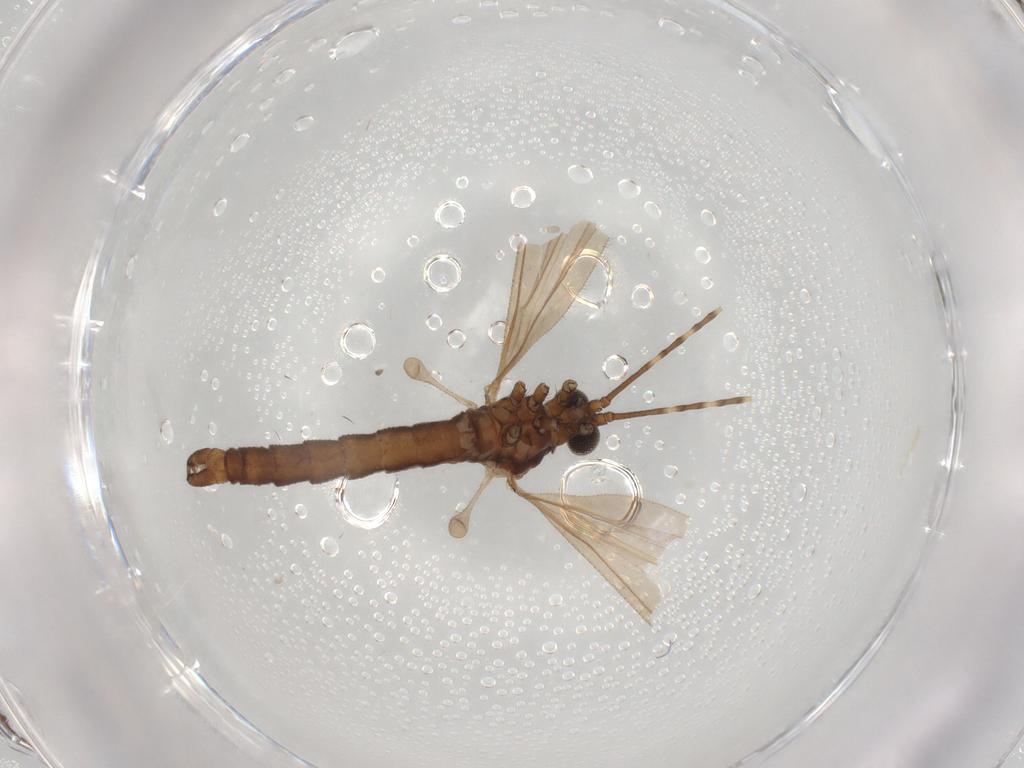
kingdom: Animalia
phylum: Arthropoda
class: Insecta
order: Diptera
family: Limoniidae
